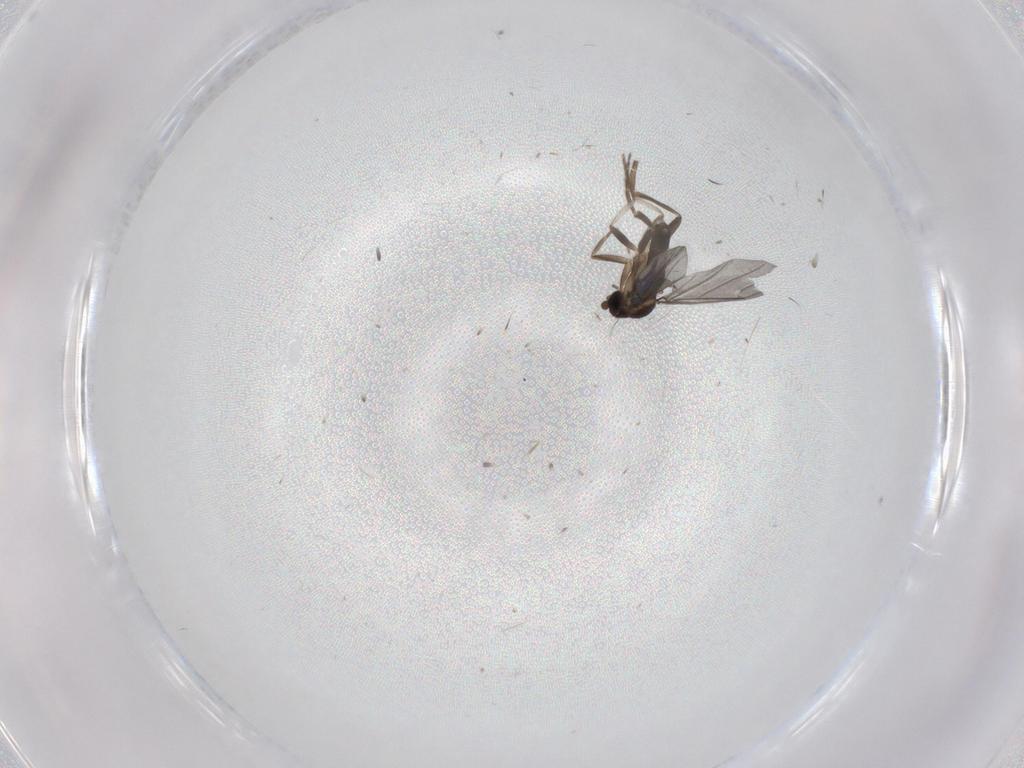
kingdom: Animalia
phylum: Arthropoda
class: Insecta
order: Diptera
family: Phoridae
